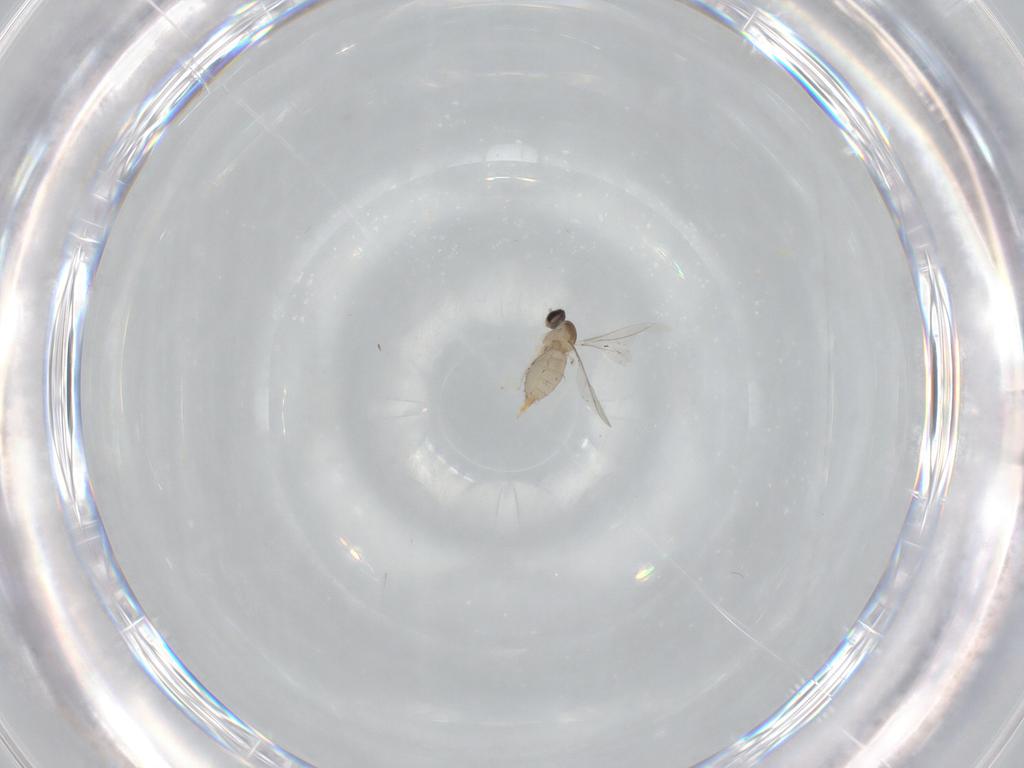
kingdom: Animalia
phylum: Arthropoda
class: Insecta
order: Diptera
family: Cecidomyiidae
